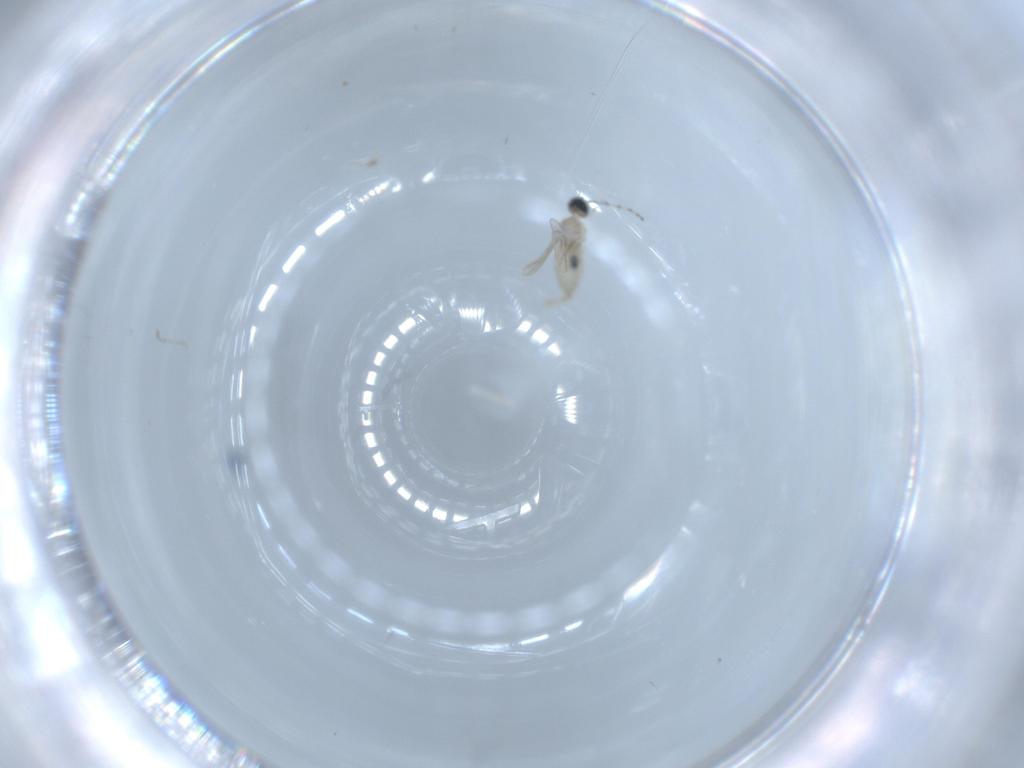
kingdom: Animalia
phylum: Arthropoda
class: Insecta
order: Diptera
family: Cecidomyiidae
